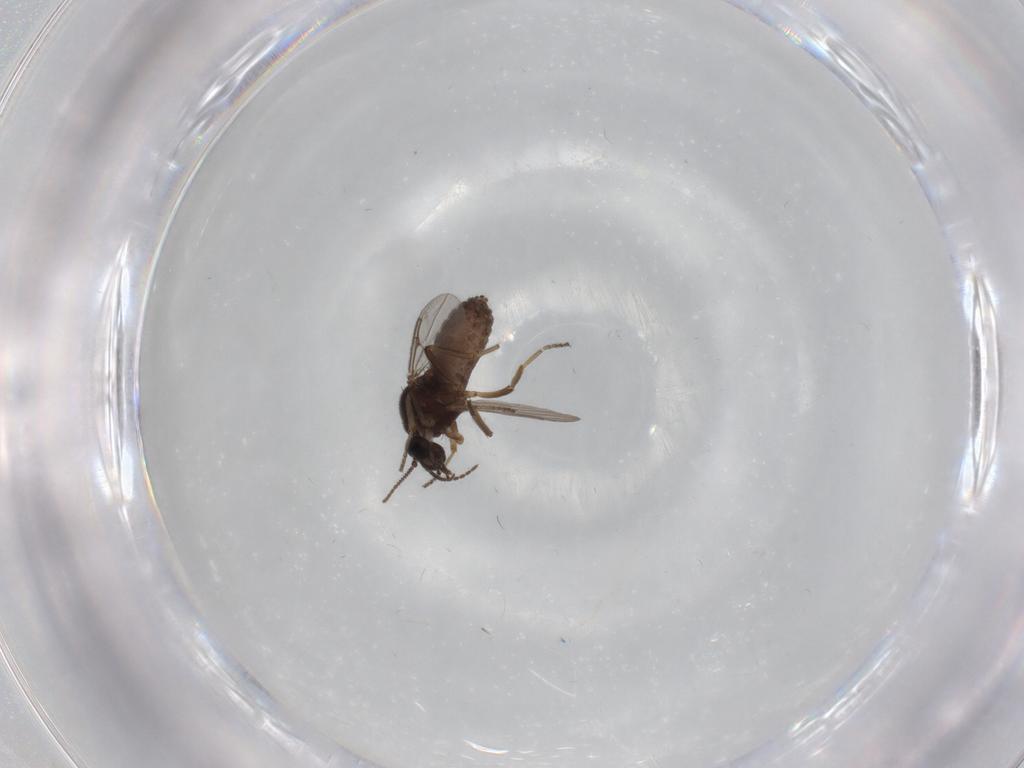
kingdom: Animalia
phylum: Arthropoda
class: Insecta
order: Diptera
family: Ceratopogonidae
